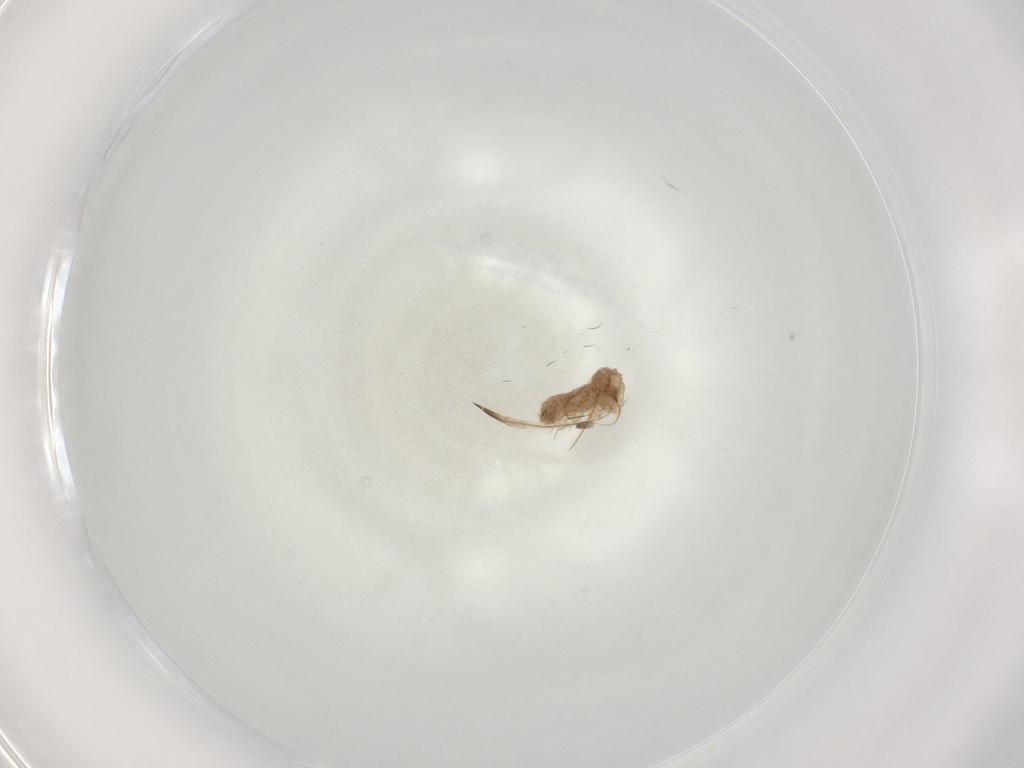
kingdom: Animalia
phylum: Arthropoda
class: Insecta
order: Hemiptera
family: Aphididae
